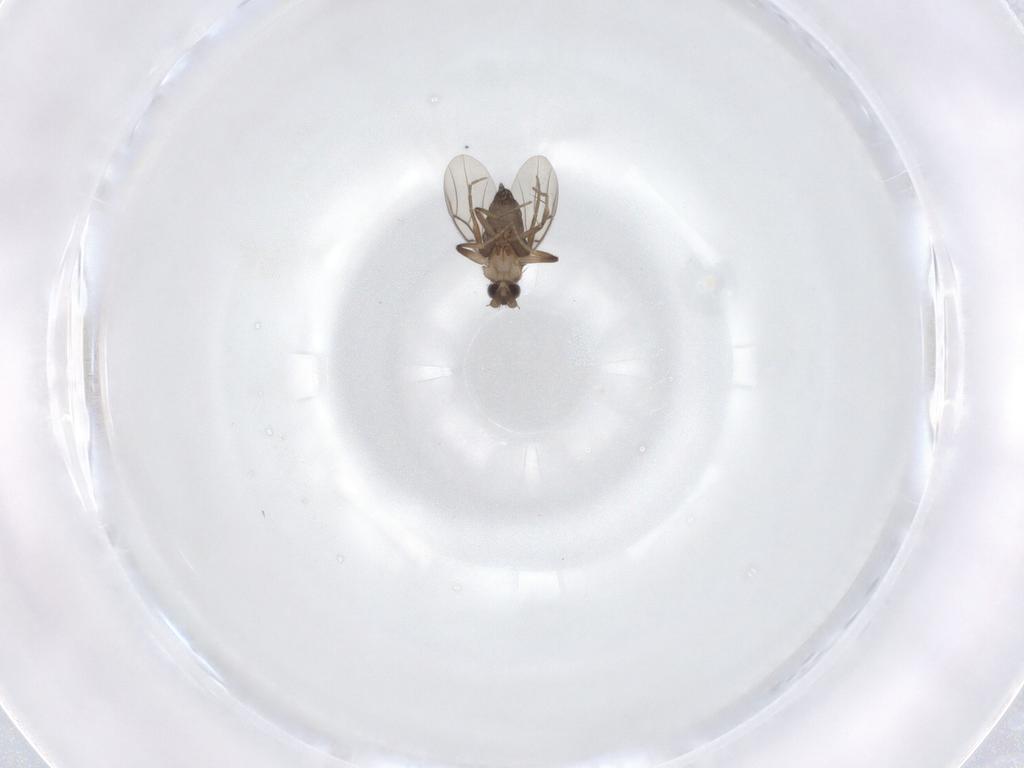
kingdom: Animalia
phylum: Arthropoda
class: Insecta
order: Diptera
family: Phoridae
